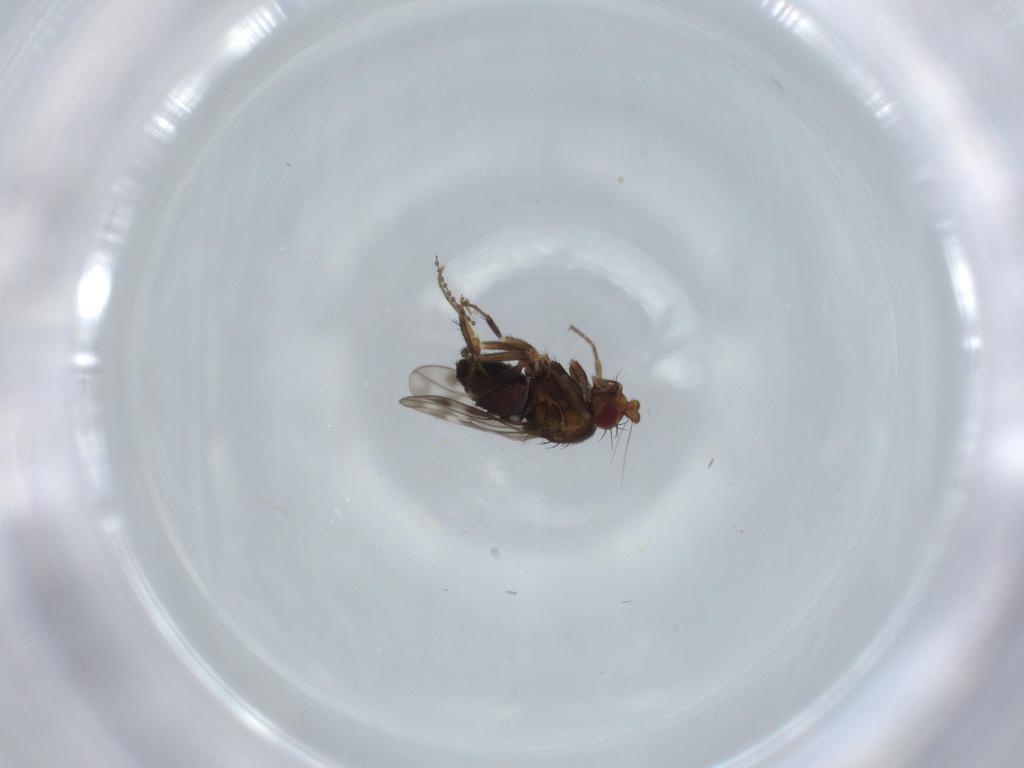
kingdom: Animalia
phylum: Arthropoda
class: Insecta
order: Diptera
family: Sphaeroceridae
